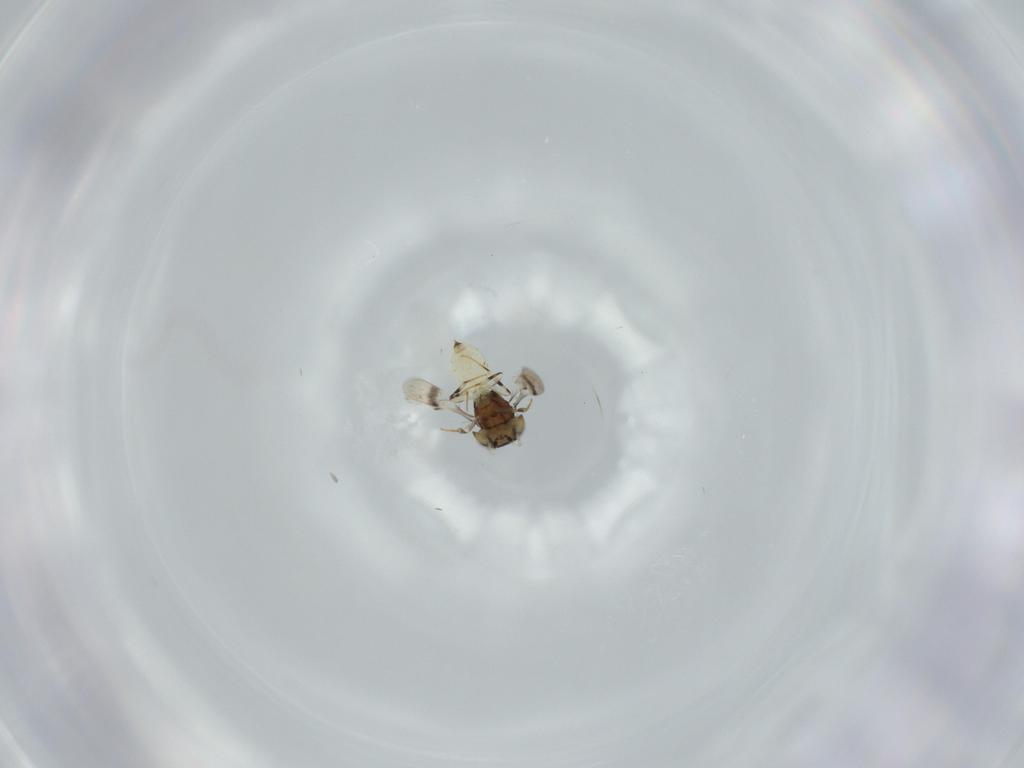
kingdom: Animalia
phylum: Arthropoda
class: Insecta
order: Hymenoptera
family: Scelionidae
